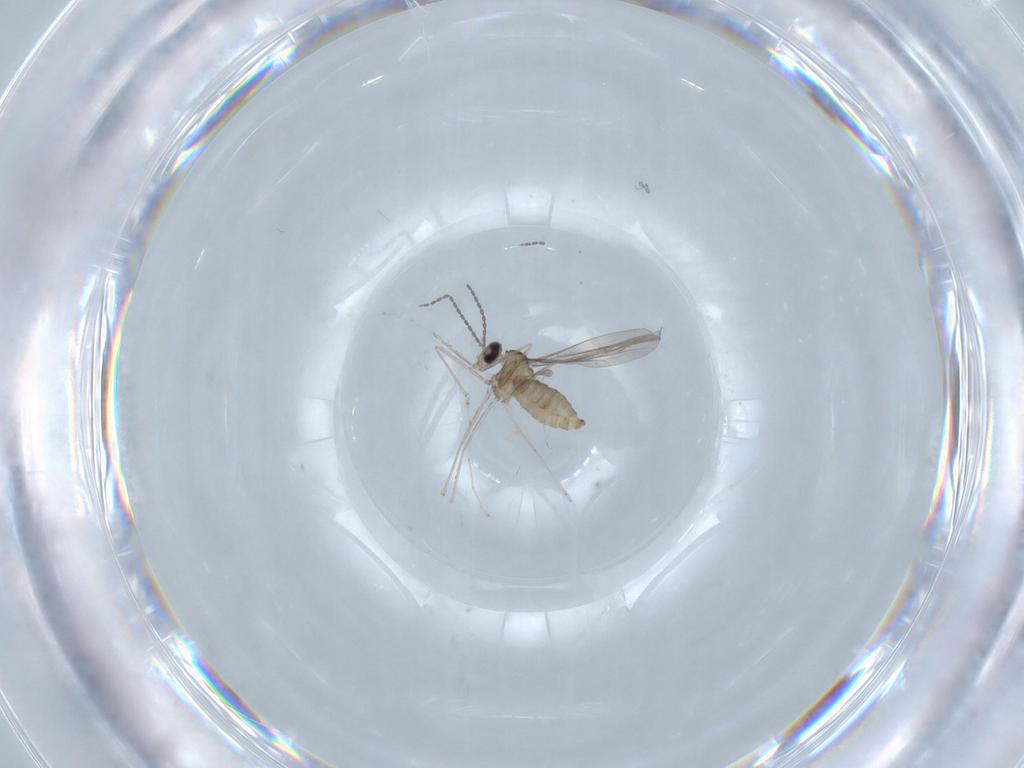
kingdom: Animalia
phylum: Arthropoda
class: Insecta
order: Diptera
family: Cecidomyiidae
